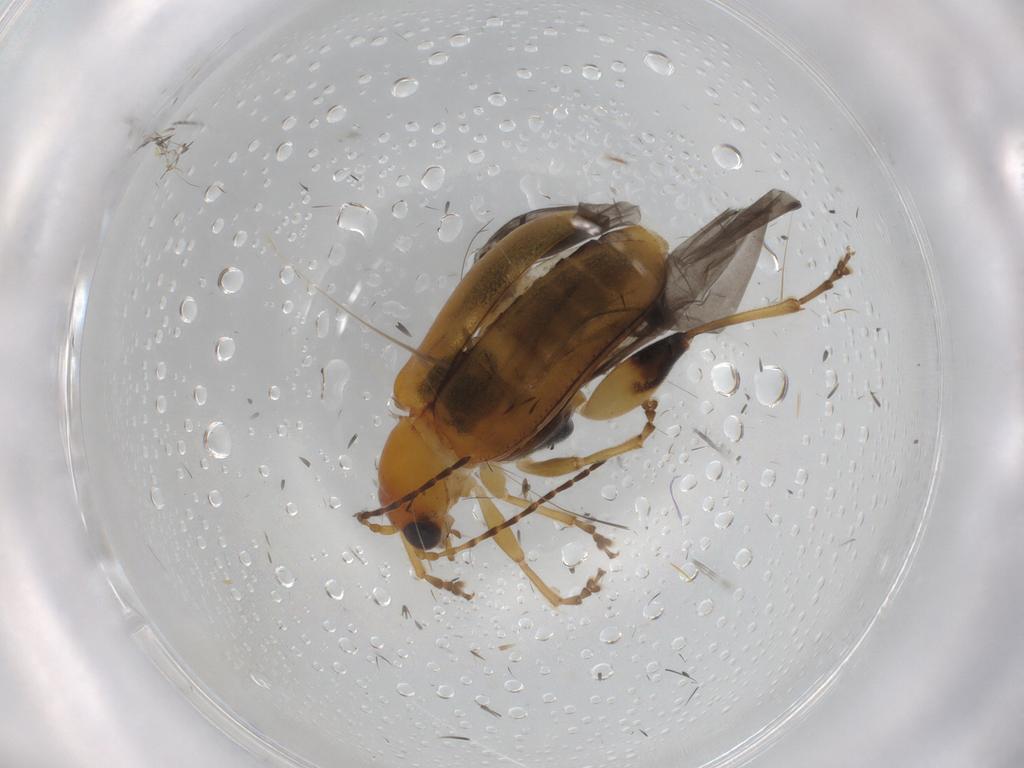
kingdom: Animalia
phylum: Arthropoda
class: Insecta
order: Coleoptera
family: Chrysomelidae
